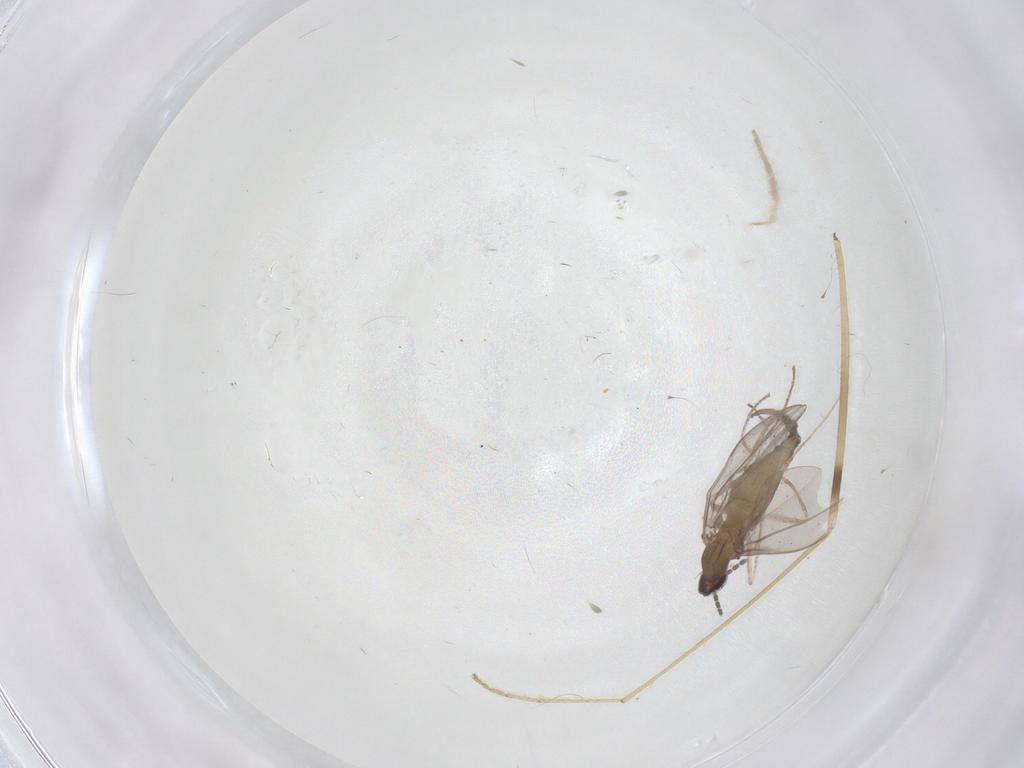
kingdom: Animalia
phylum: Arthropoda
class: Insecta
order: Diptera
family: Cecidomyiidae
